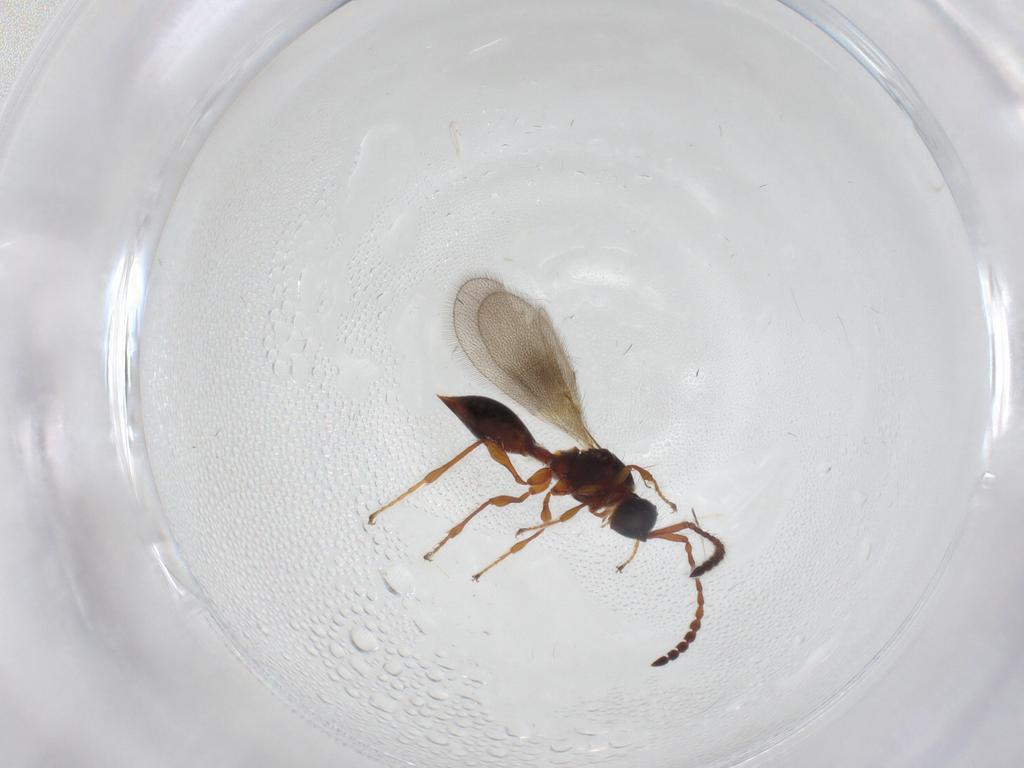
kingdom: Animalia
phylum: Arthropoda
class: Insecta
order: Hymenoptera
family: Diapriidae
